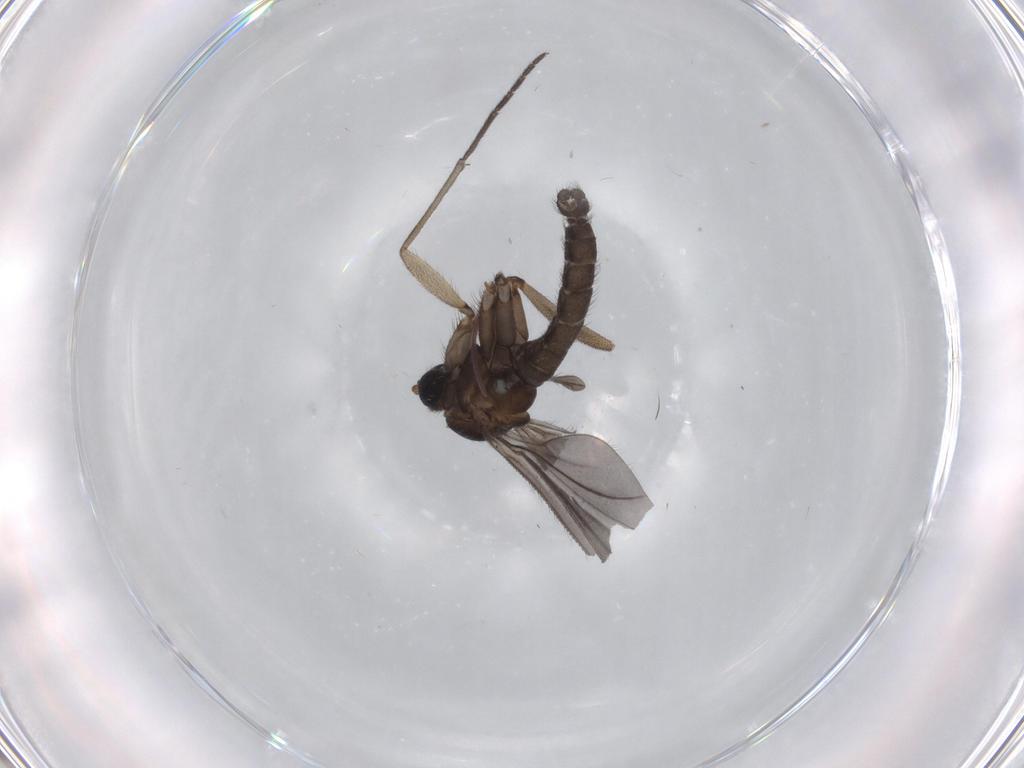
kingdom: Animalia
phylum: Arthropoda
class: Insecta
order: Diptera
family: Sciaridae
